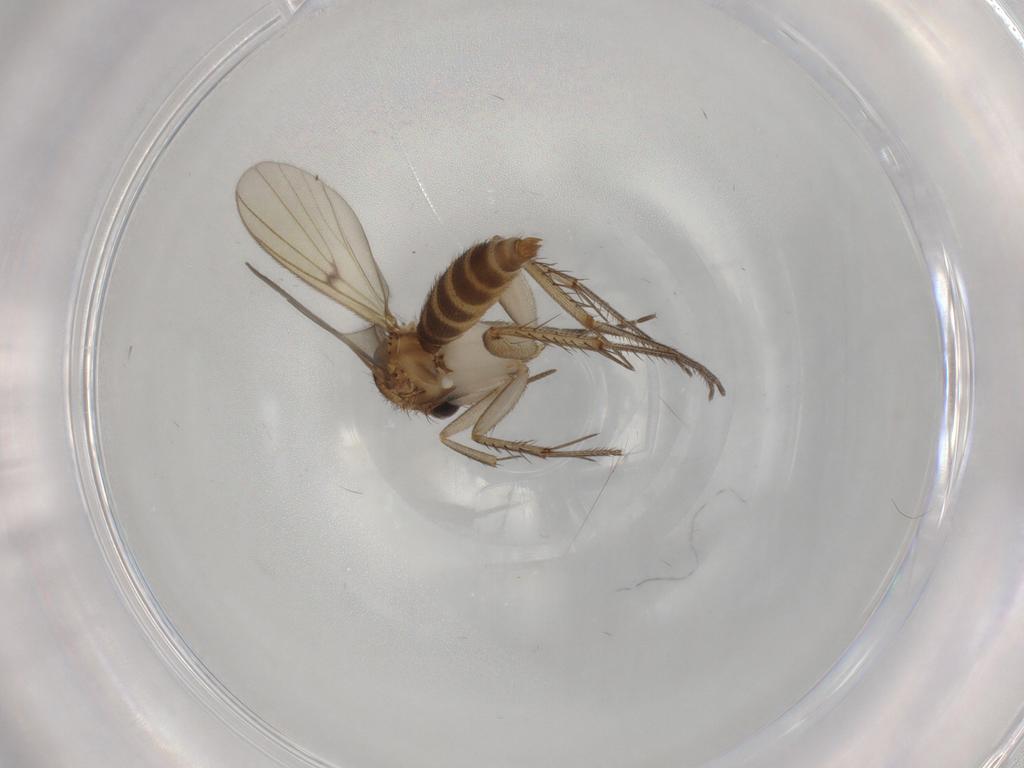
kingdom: Animalia
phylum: Arthropoda
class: Insecta
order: Diptera
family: Chironomidae
